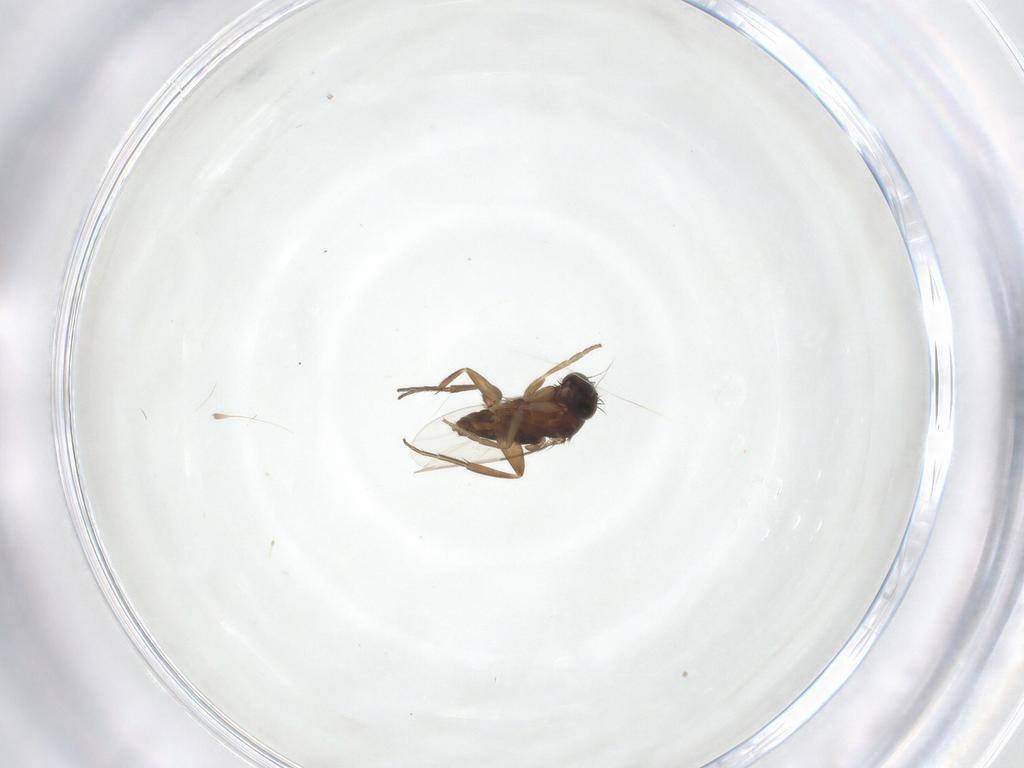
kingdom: Animalia
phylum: Arthropoda
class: Insecta
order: Diptera
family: Phoridae
